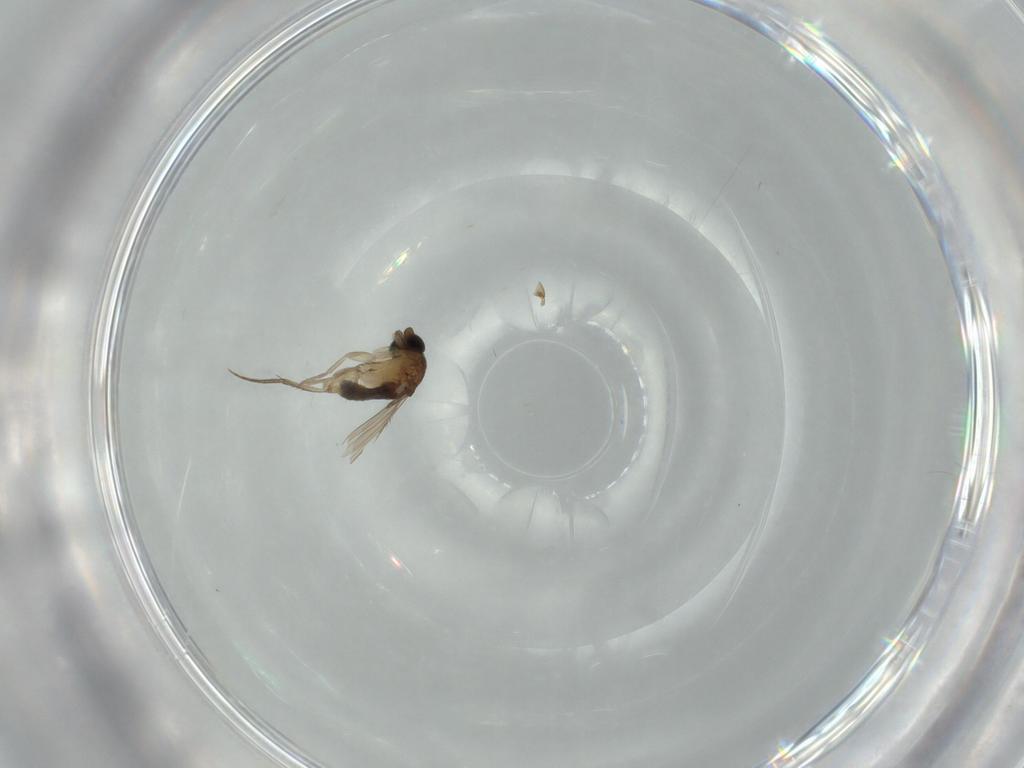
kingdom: Animalia
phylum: Arthropoda
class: Insecta
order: Diptera
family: Phoridae
